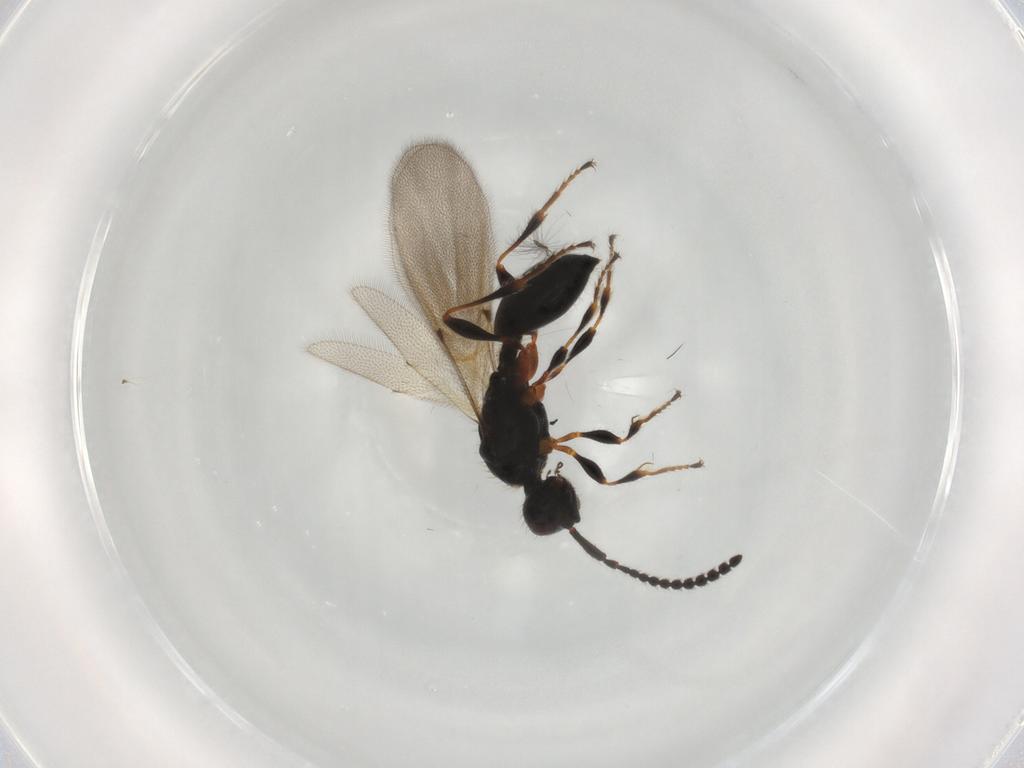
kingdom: Animalia
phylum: Arthropoda
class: Insecta
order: Hymenoptera
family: Diapriidae
